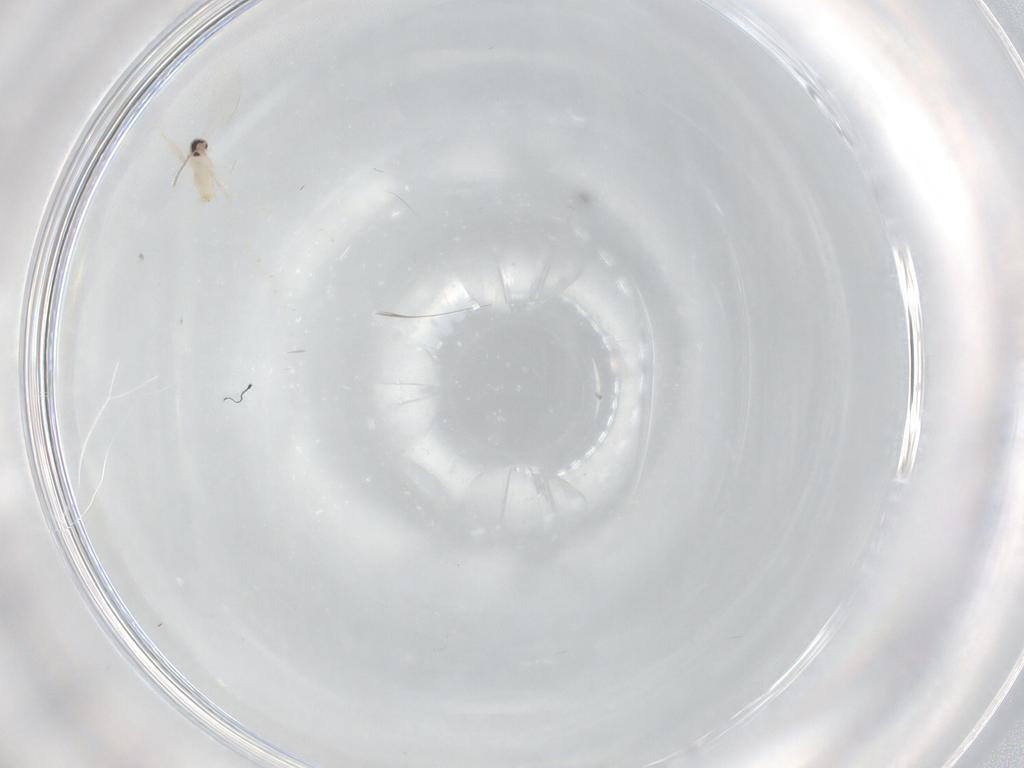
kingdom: Animalia
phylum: Arthropoda
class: Insecta
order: Diptera
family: Cecidomyiidae
